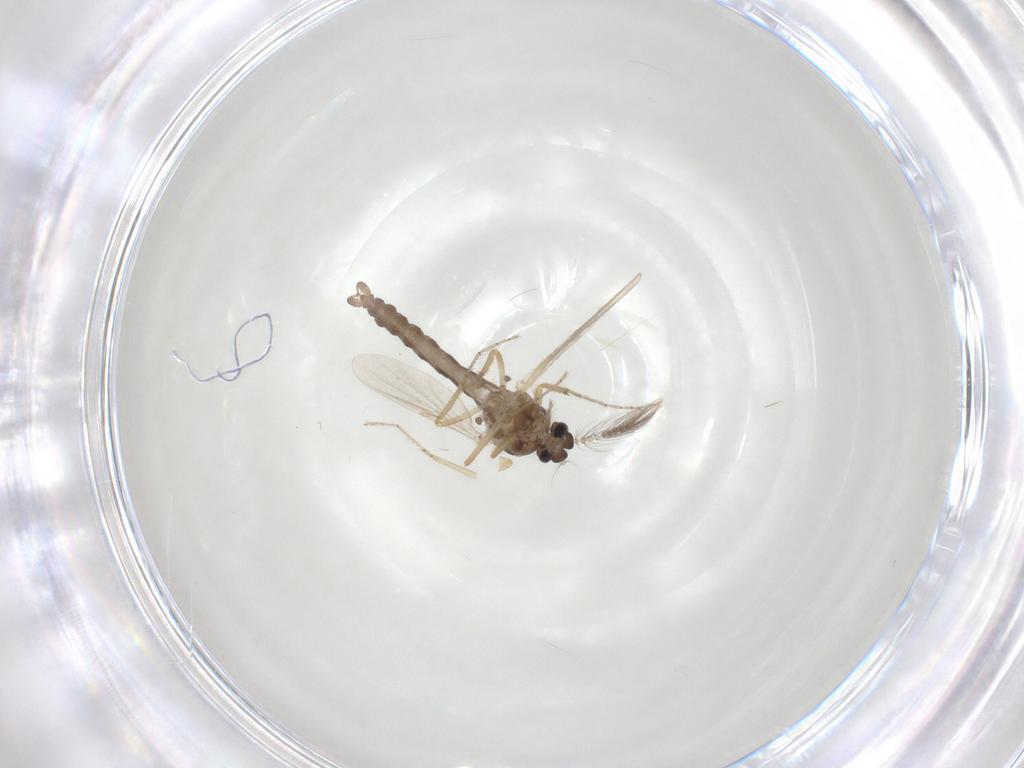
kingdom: Animalia
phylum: Arthropoda
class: Insecta
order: Diptera
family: Ceratopogonidae
